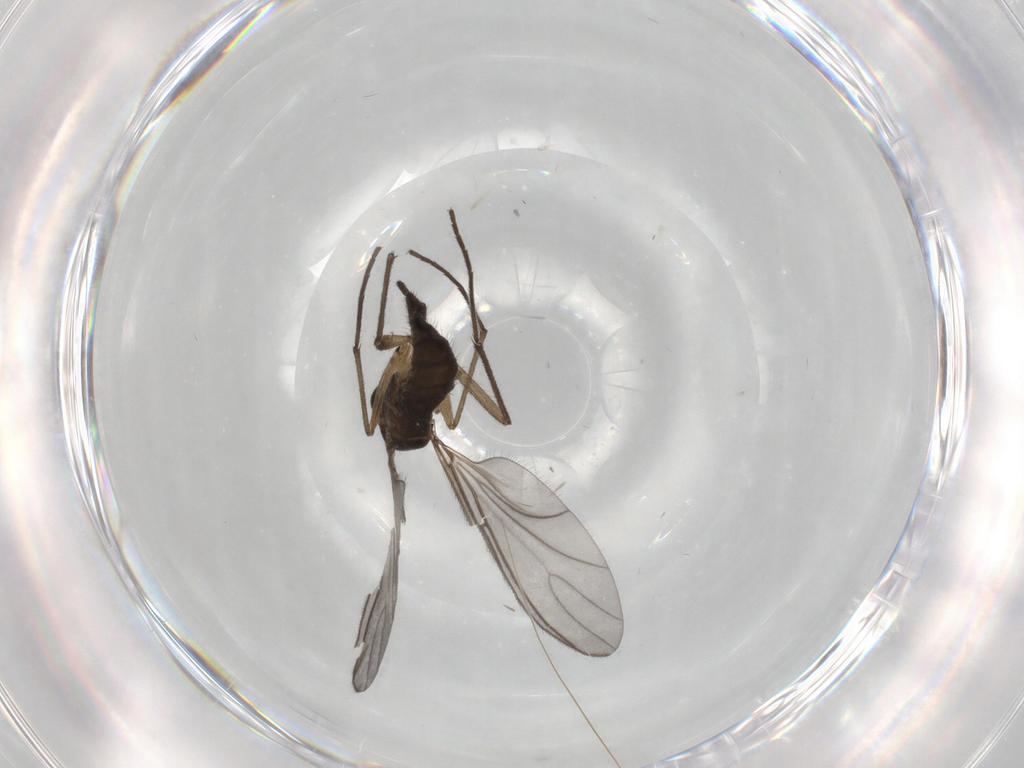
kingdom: Animalia
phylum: Arthropoda
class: Insecta
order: Diptera
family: Phoridae
